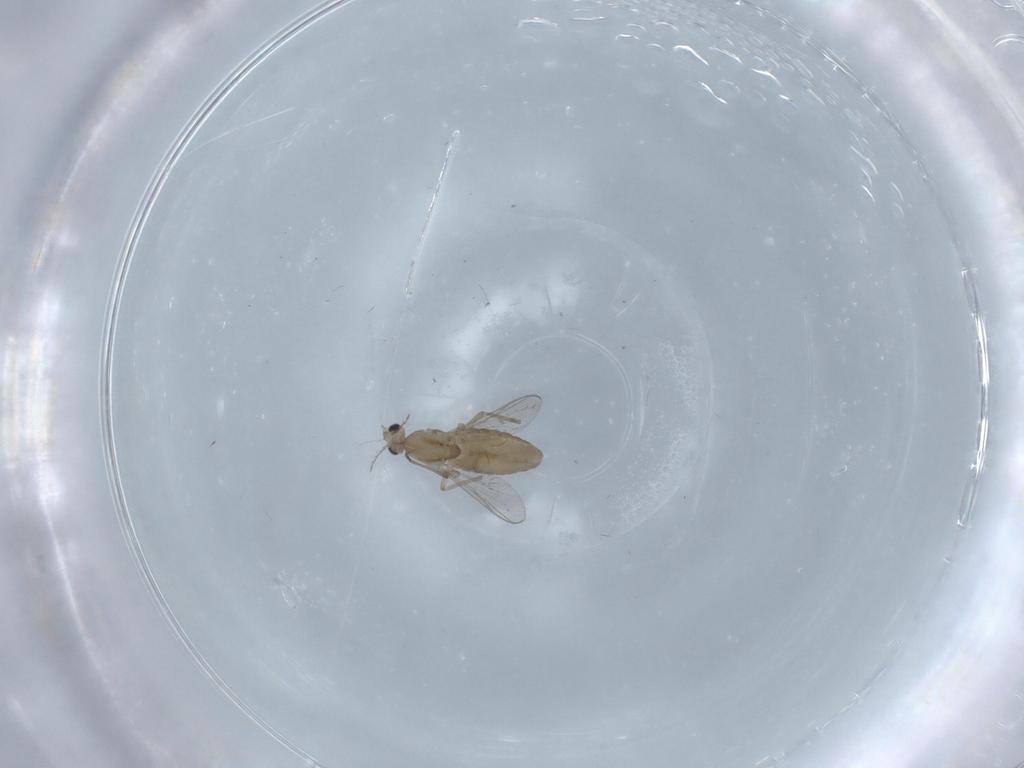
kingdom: Animalia
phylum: Arthropoda
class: Insecta
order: Diptera
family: Chironomidae
